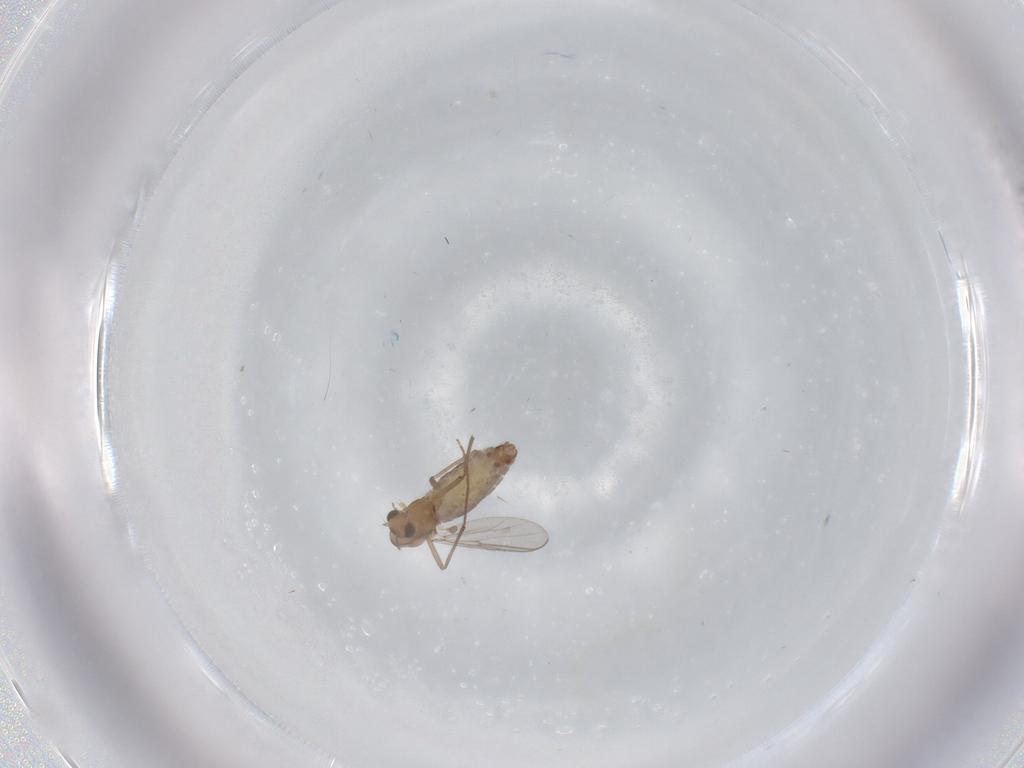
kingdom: Animalia
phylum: Arthropoda
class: Insecta
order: Diptera
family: Chironomidae
